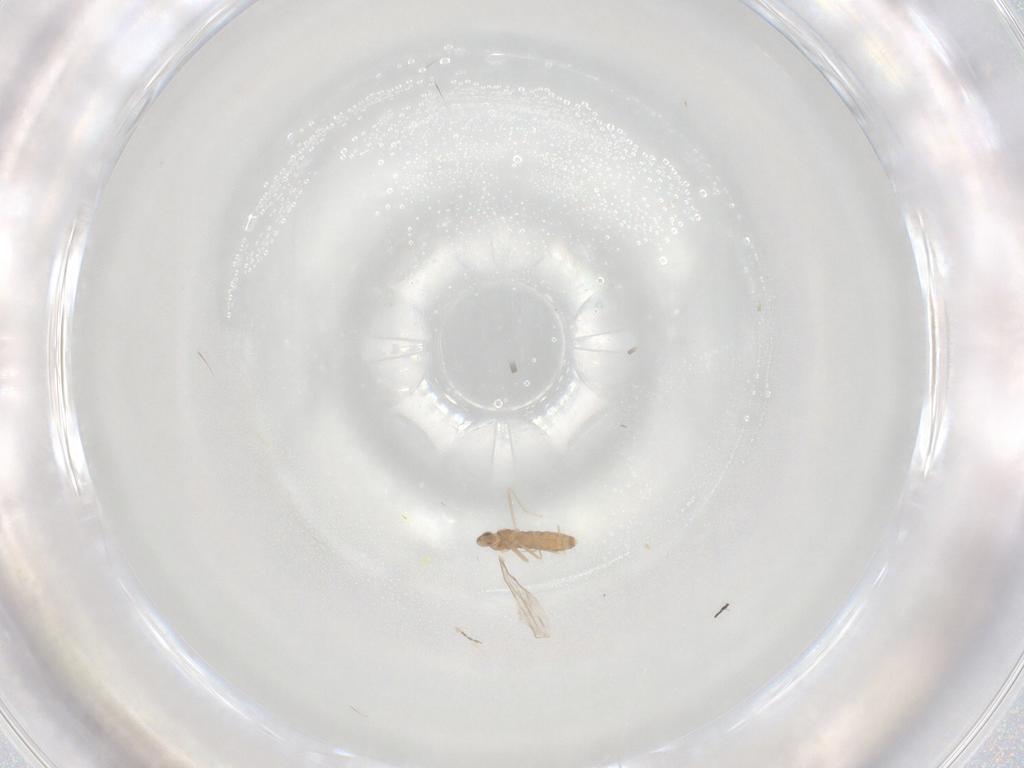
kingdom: Animalia
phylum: Arthropoda
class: Insecta
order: Diptera
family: Cecidomyiidae
